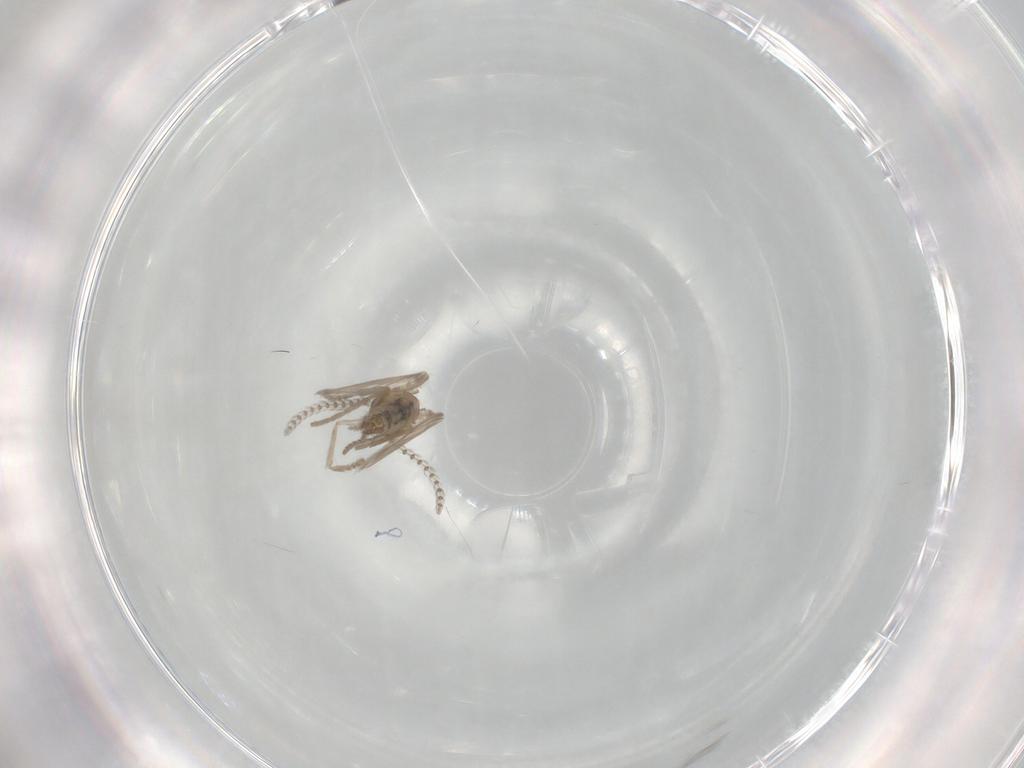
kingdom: Animalia
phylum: Arthropoda
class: Insecta
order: Diptera
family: Psychodidae
